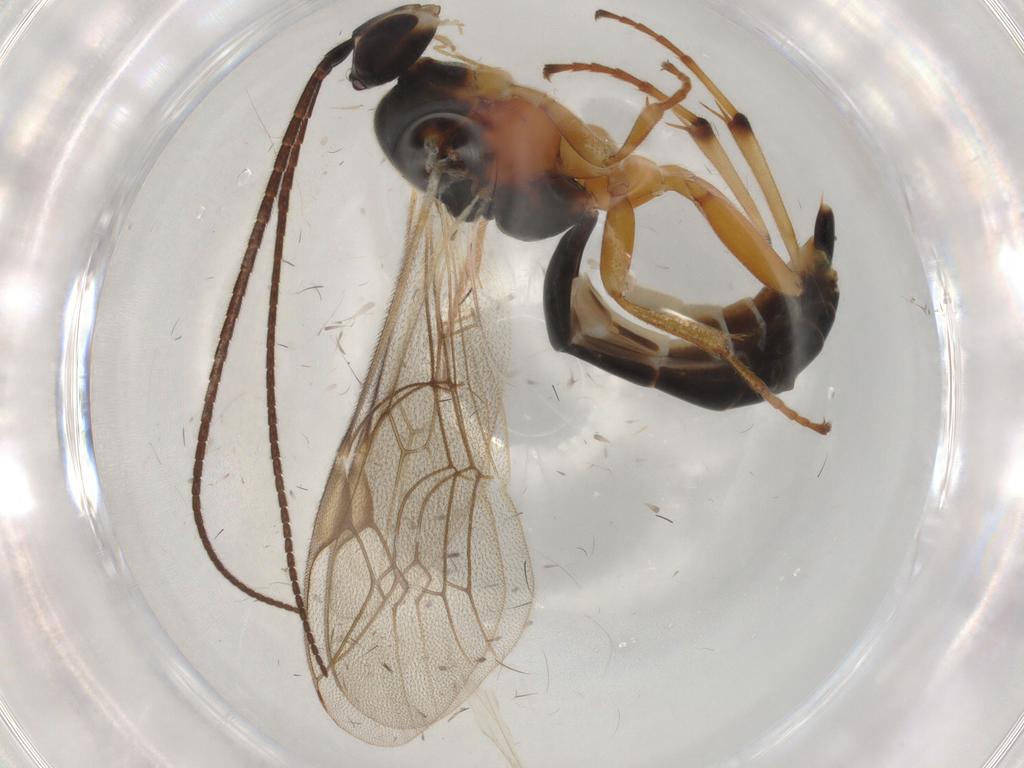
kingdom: Animalia
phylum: Arthropoda
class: Insecta
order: Hymenoptera
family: Ichneumonidae
